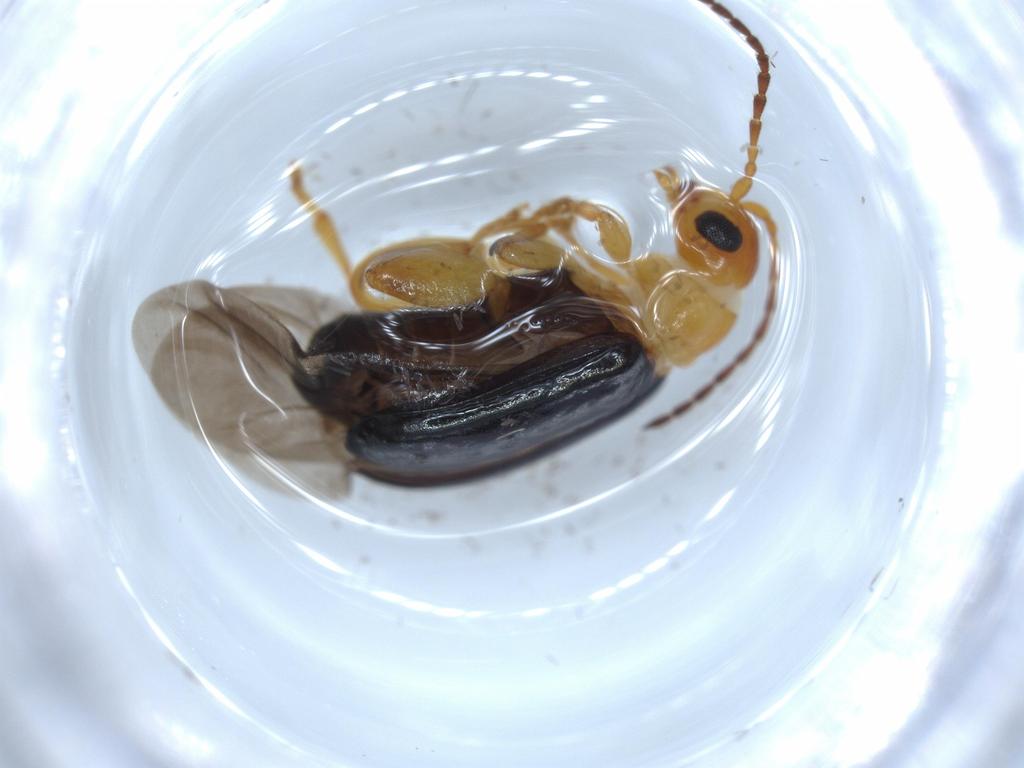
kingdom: Animalia
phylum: Arthropoda
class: Insecta
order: Coleoptera
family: Chrysomelidae
